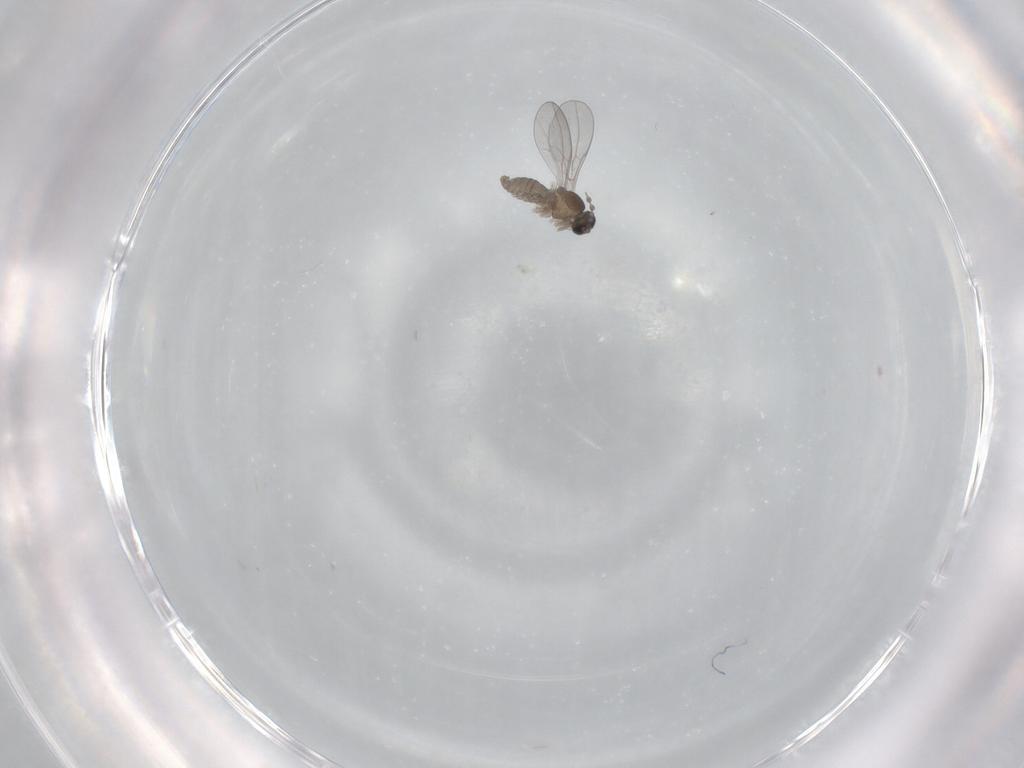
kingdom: Animalia
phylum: Arthropoda
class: Insecta
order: Diptera
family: Cecidomyiidae
